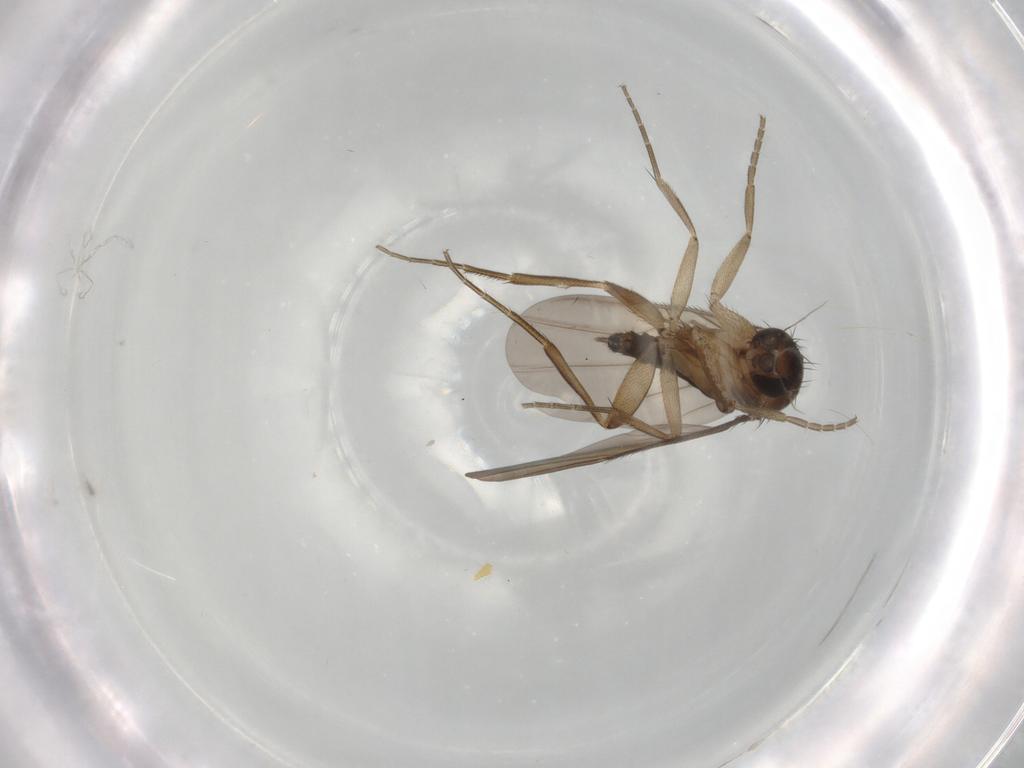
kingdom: Animalia
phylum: Arthropoda
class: Insecta
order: Diptera
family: Phoridae
